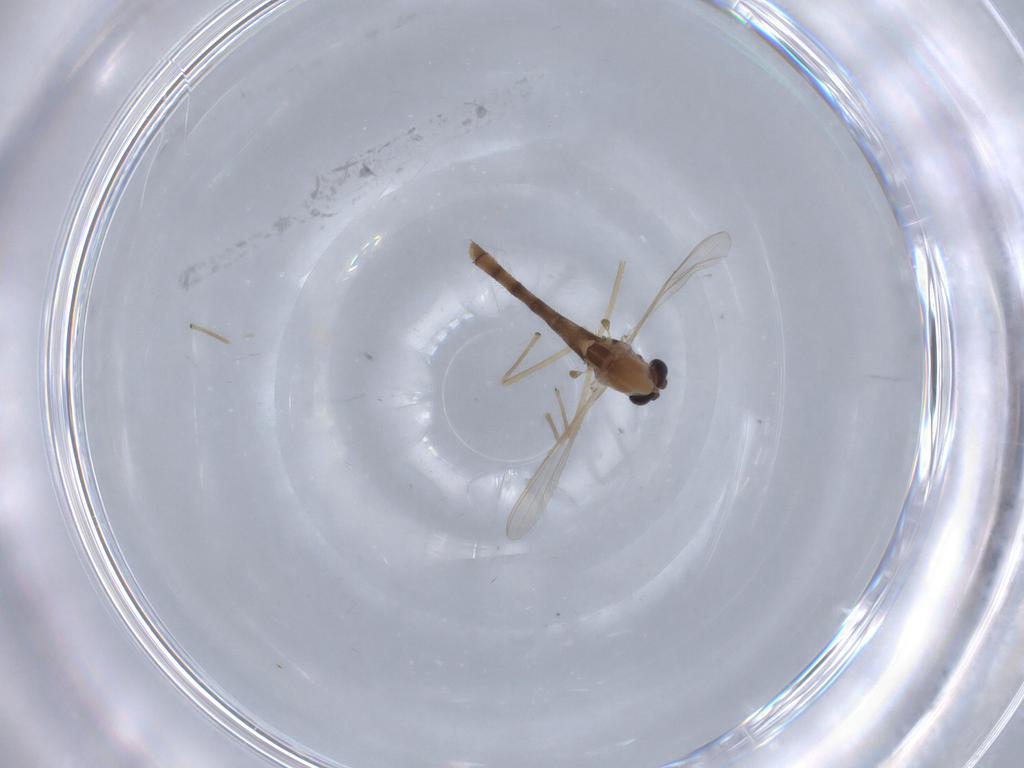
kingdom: Animalia
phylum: Arthropoda
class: Insecta
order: Diptera
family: Chironomidae
